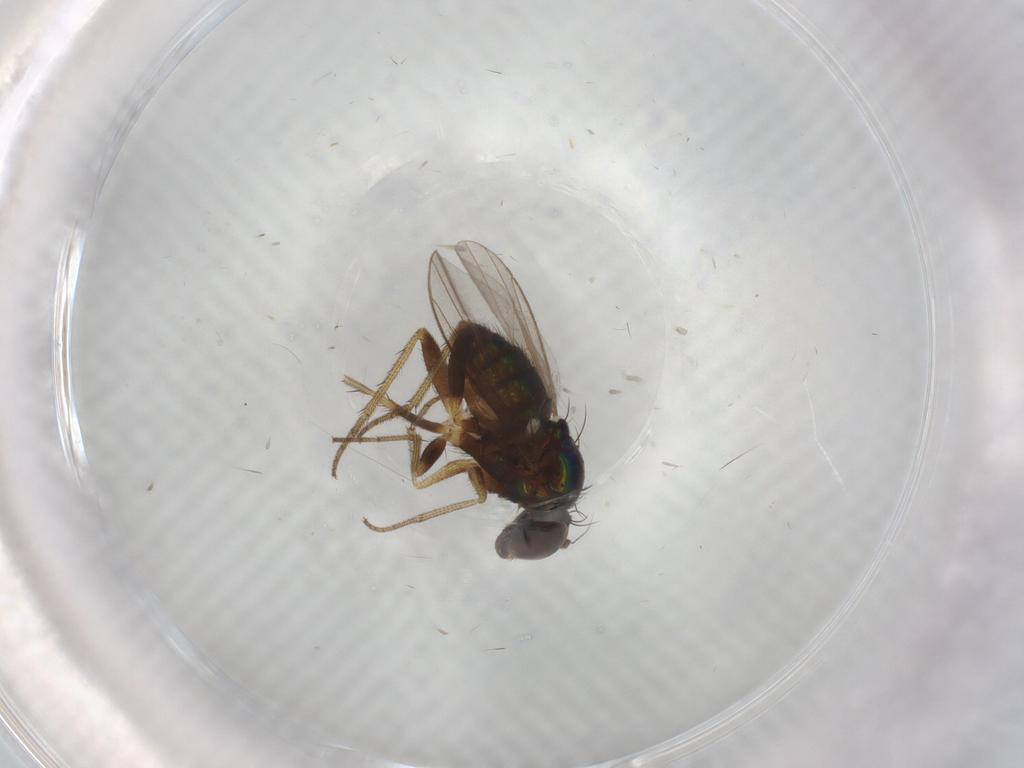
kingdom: Animalia
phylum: Arthropoda
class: Insecta
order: Diptera
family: Dolichopodidae
